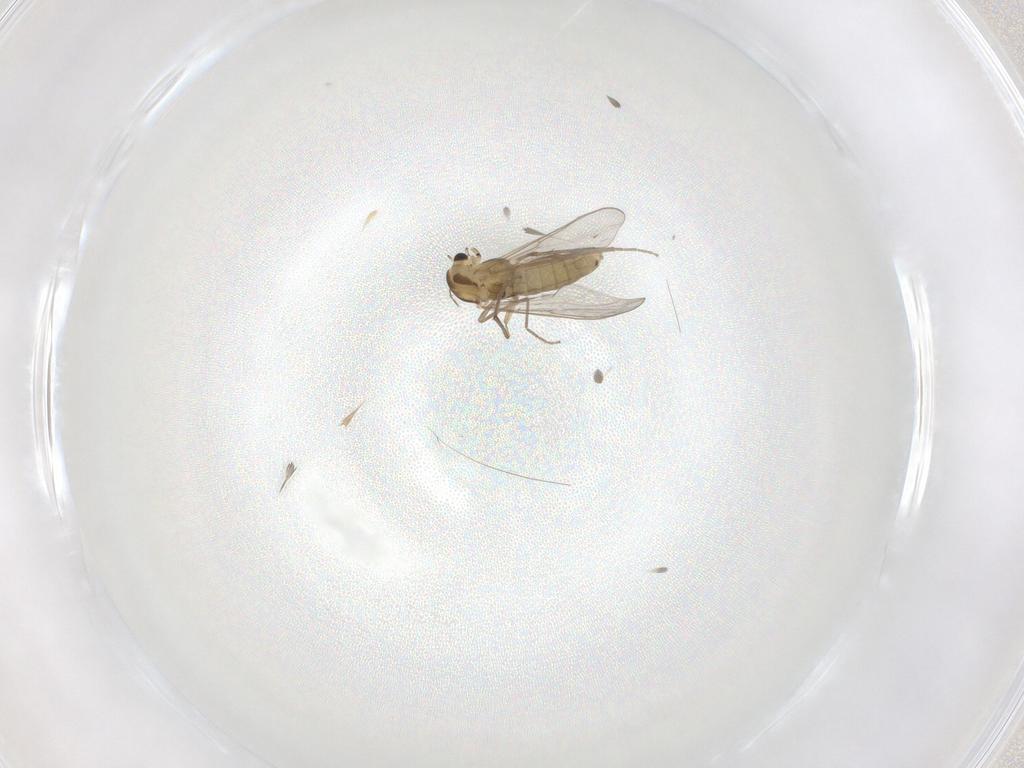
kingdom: Animalia
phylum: Arthropoda
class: Insecta
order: Diptera
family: Chironomidae
